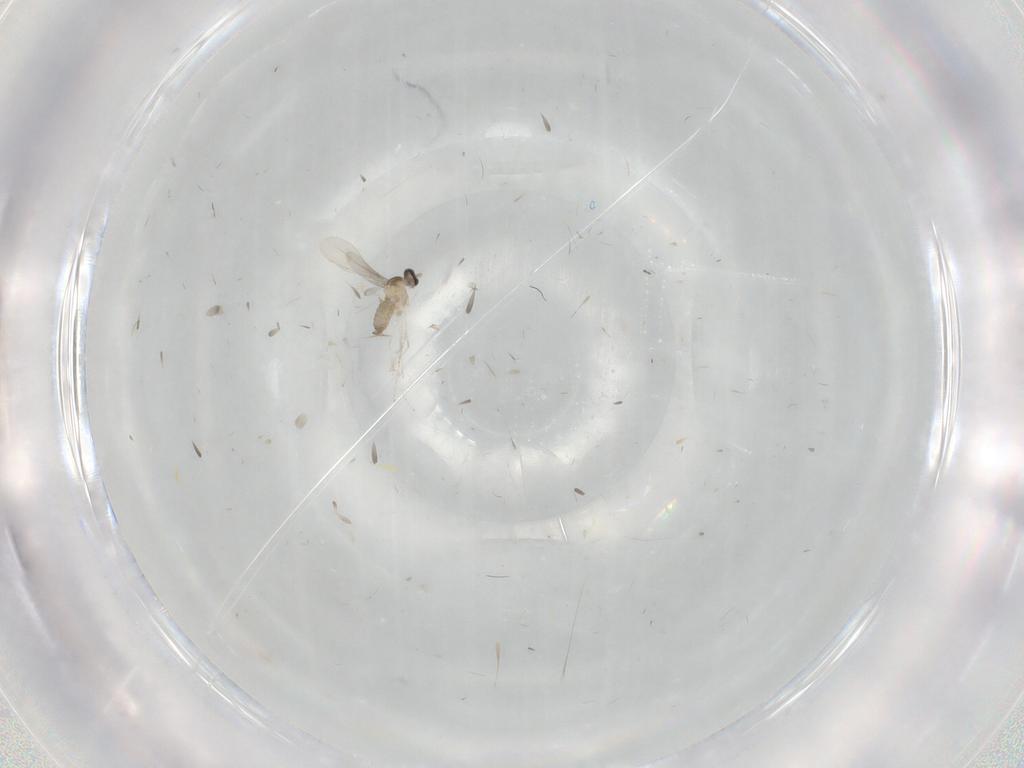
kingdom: Animalia
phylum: Arthropoda
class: Insecta
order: Diptera
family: Cecidomyiidae
